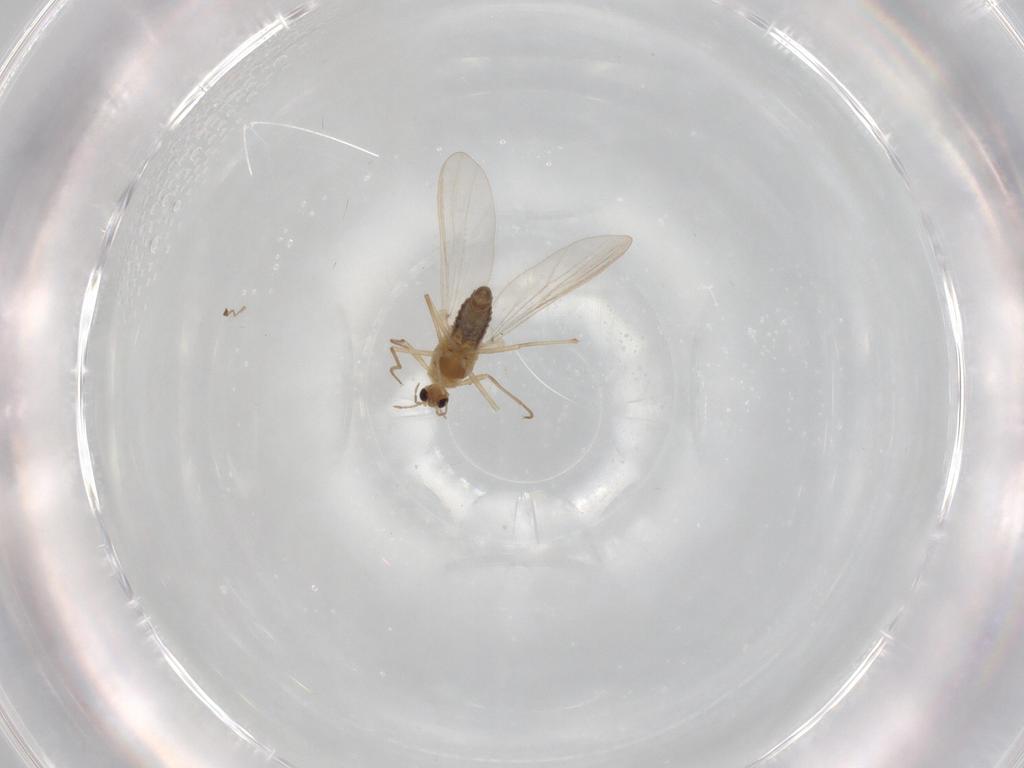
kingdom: Animalia
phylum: Arthropoda
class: Insecta
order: Diptera
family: Chironomidae
